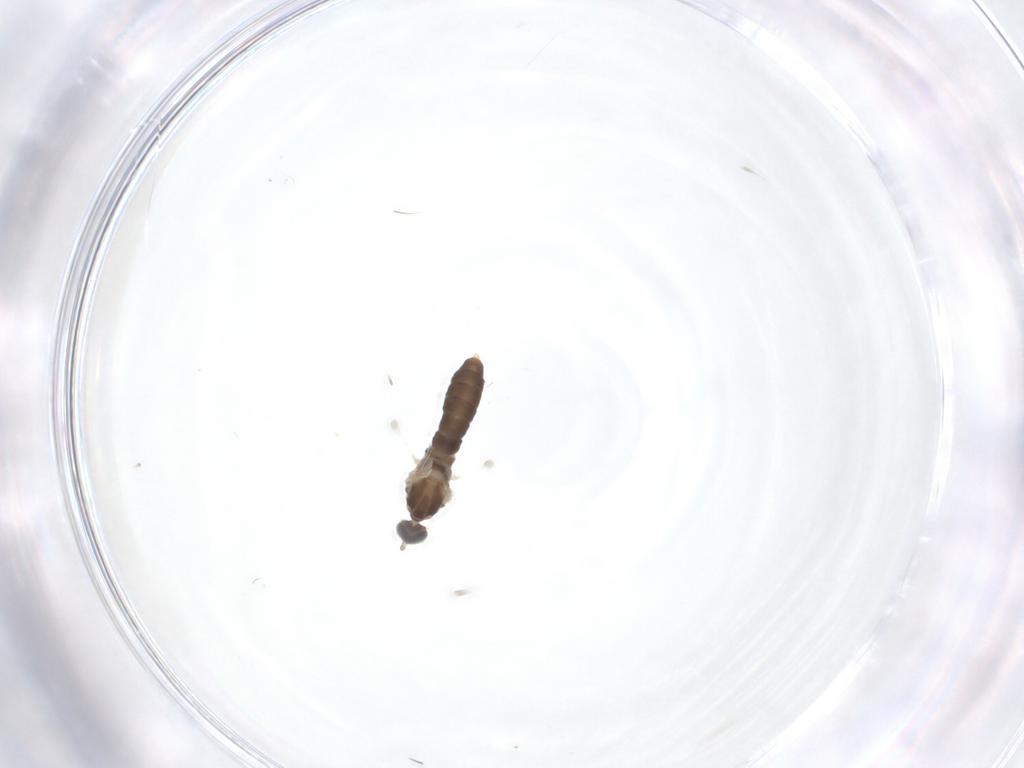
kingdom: Animalia
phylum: Arthropoda
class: Insecta
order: Diptera
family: Cecidomyiidae
